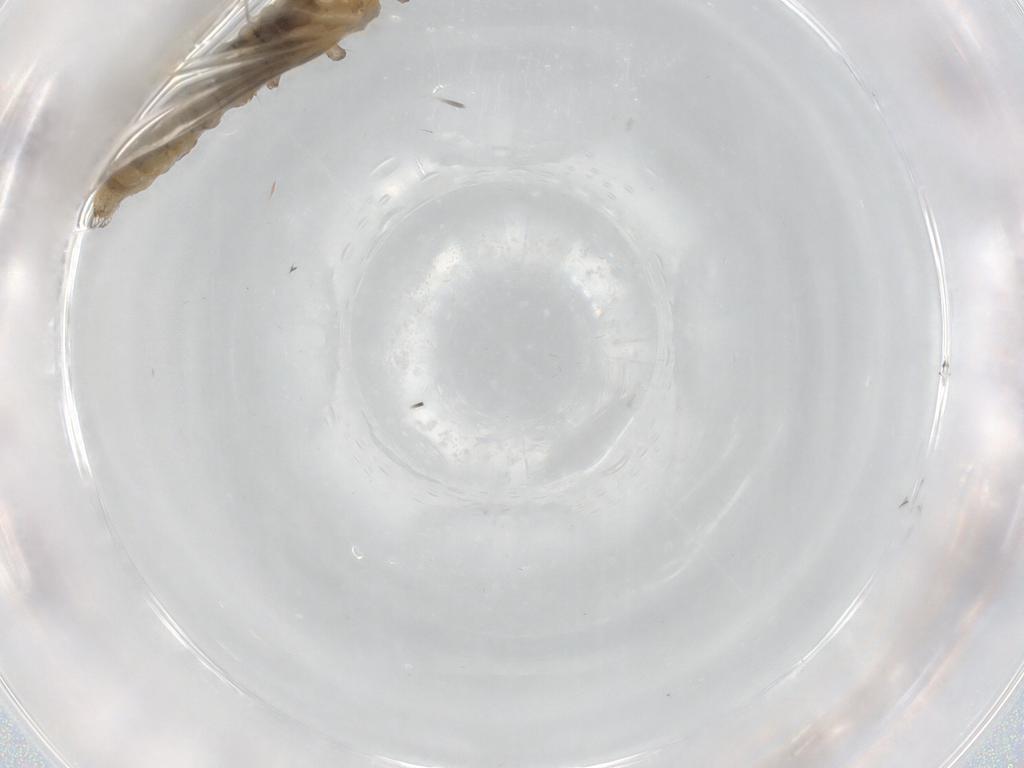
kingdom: Animalia
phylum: Arthropoda
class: Insecta
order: Diptera
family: Limoniidae
